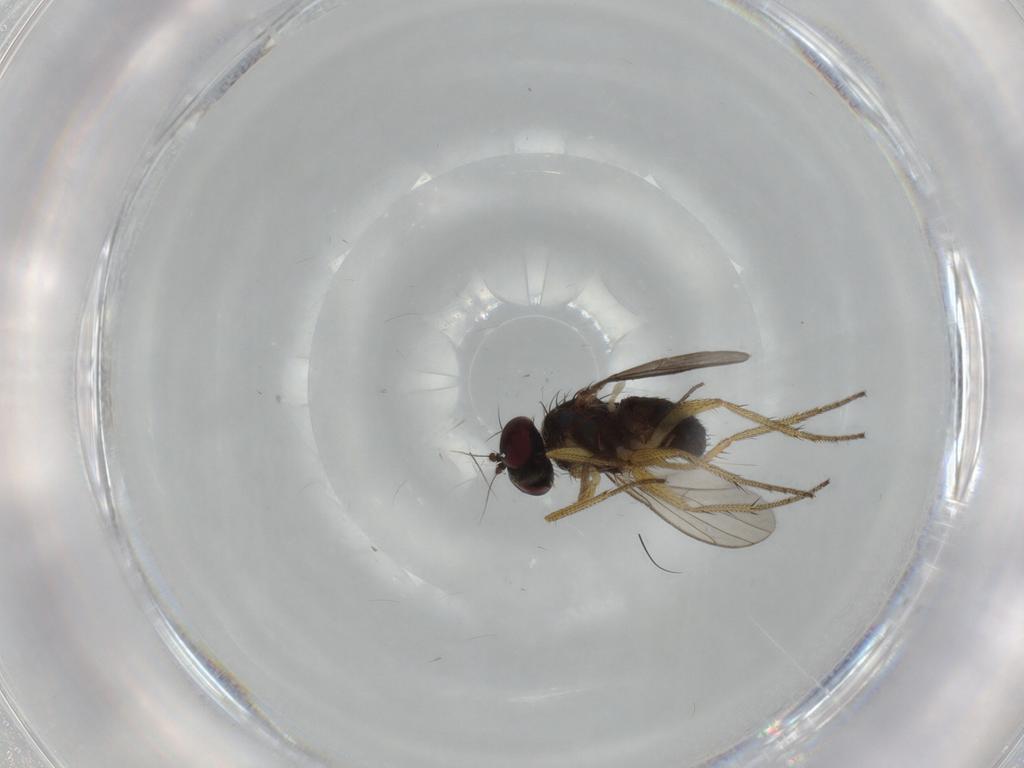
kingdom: Animalia
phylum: Arthropoda
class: Insecta
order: Diptera
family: Dolichopodidae
